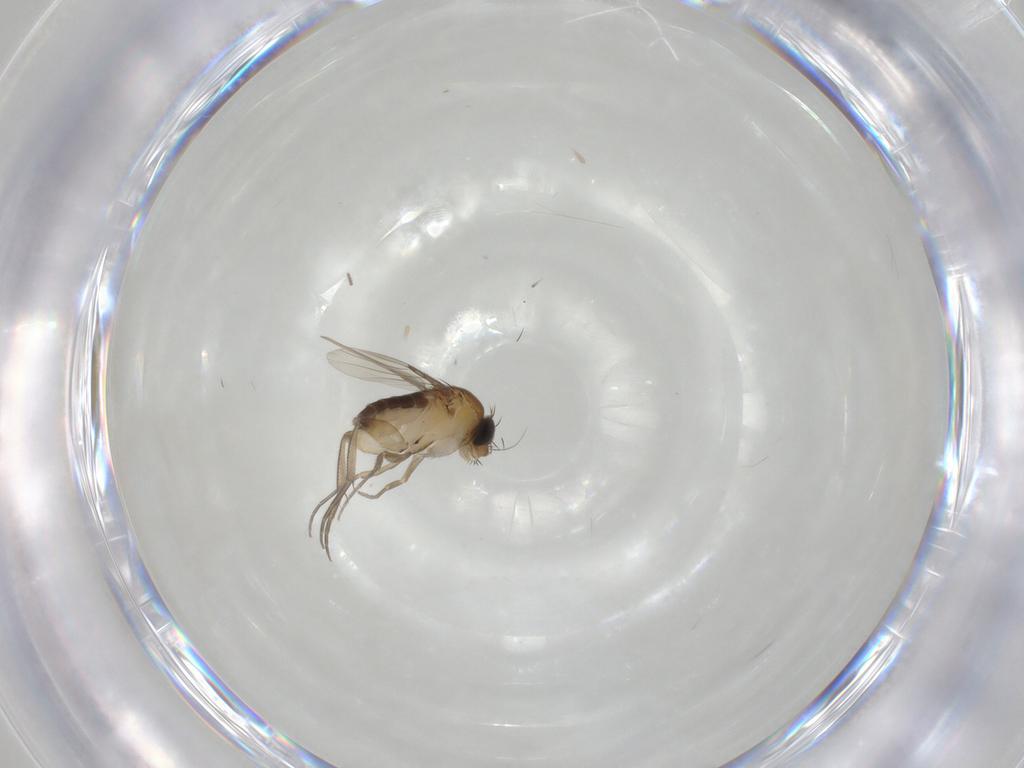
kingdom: Animalia
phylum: Arthropoda
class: Insecta
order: Diptera
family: Phoridae
